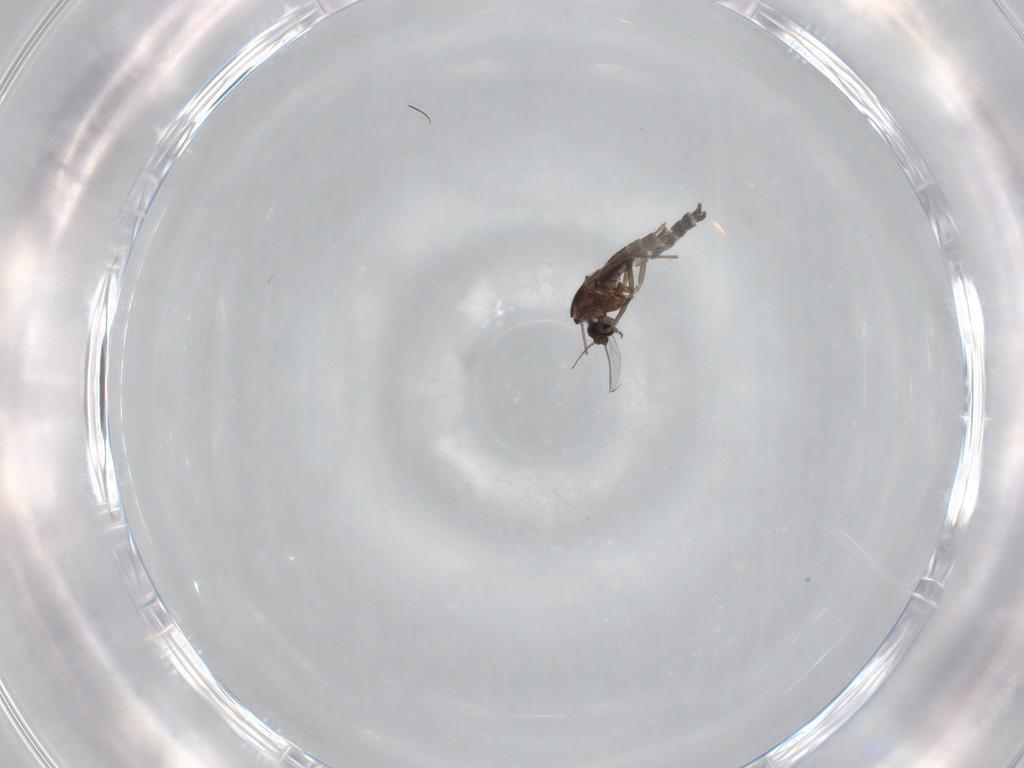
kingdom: Animalia
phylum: Arthropoda
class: Insecta
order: Diptera
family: Chironomidae
